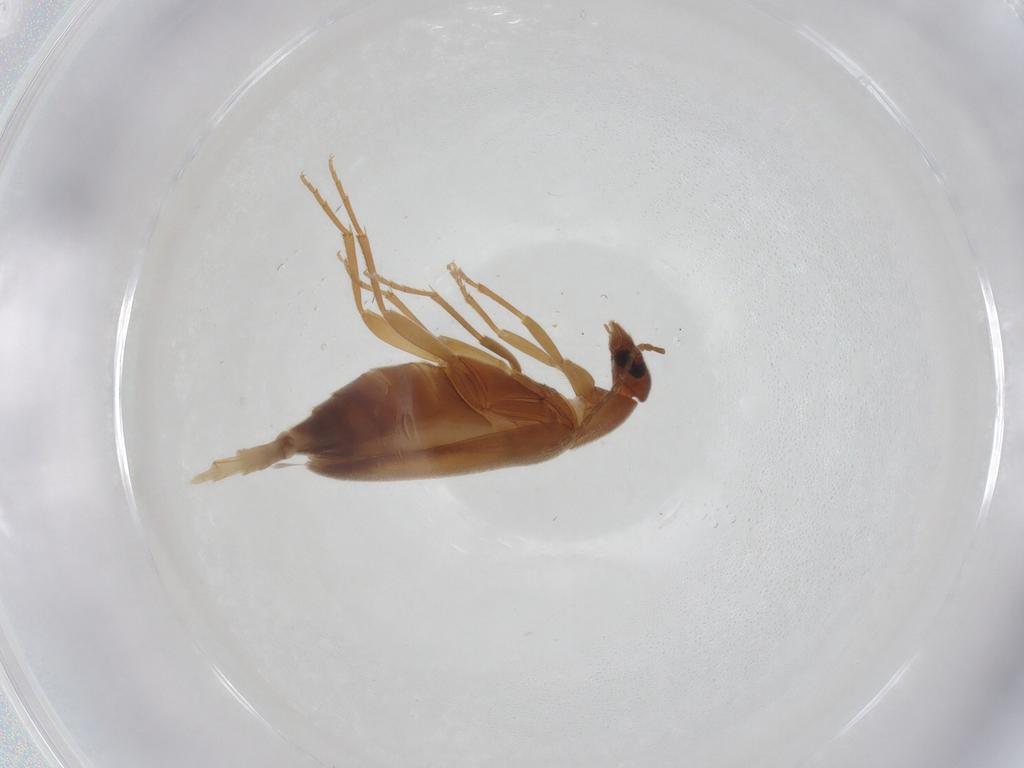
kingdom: Animalia
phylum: Arthropoda
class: Insecta
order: Coleoptera
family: Scraptiidae
